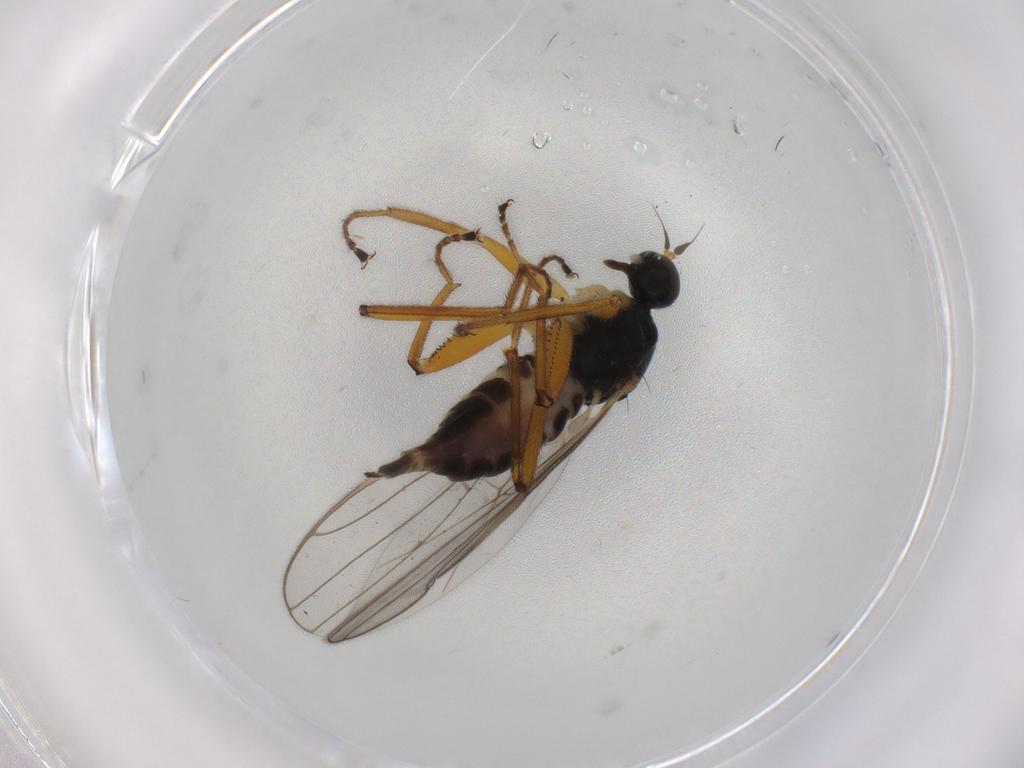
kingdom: Animalia
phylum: Arthropoda
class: Insecta
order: Diptera
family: Hybotidae
